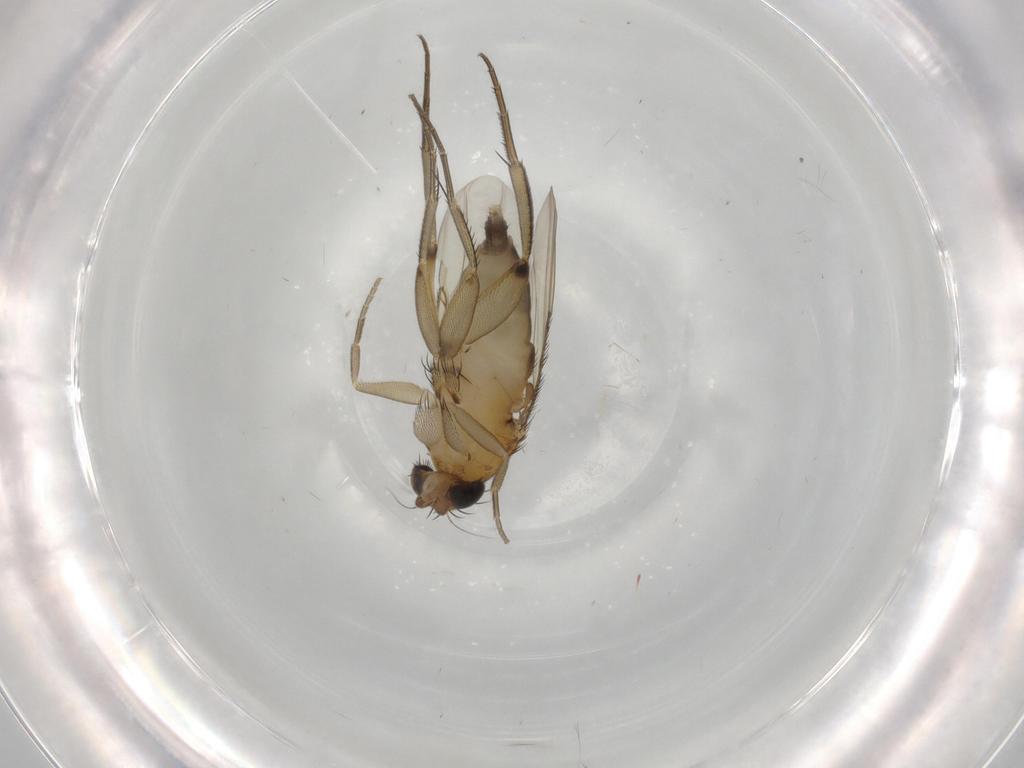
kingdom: Animalia
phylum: Arthropoda
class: Insecta
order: Diptera
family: Phoridae
